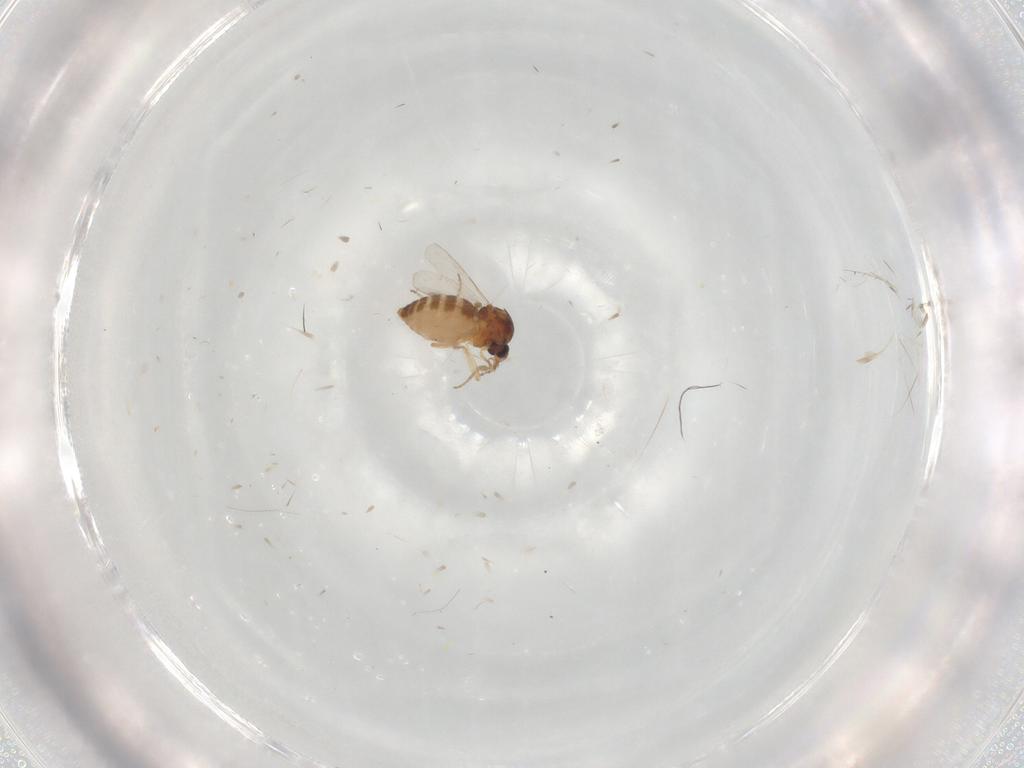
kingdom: Animalia
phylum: Arthropoda
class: Insecta
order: Diptera
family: Ceratopogonidae
